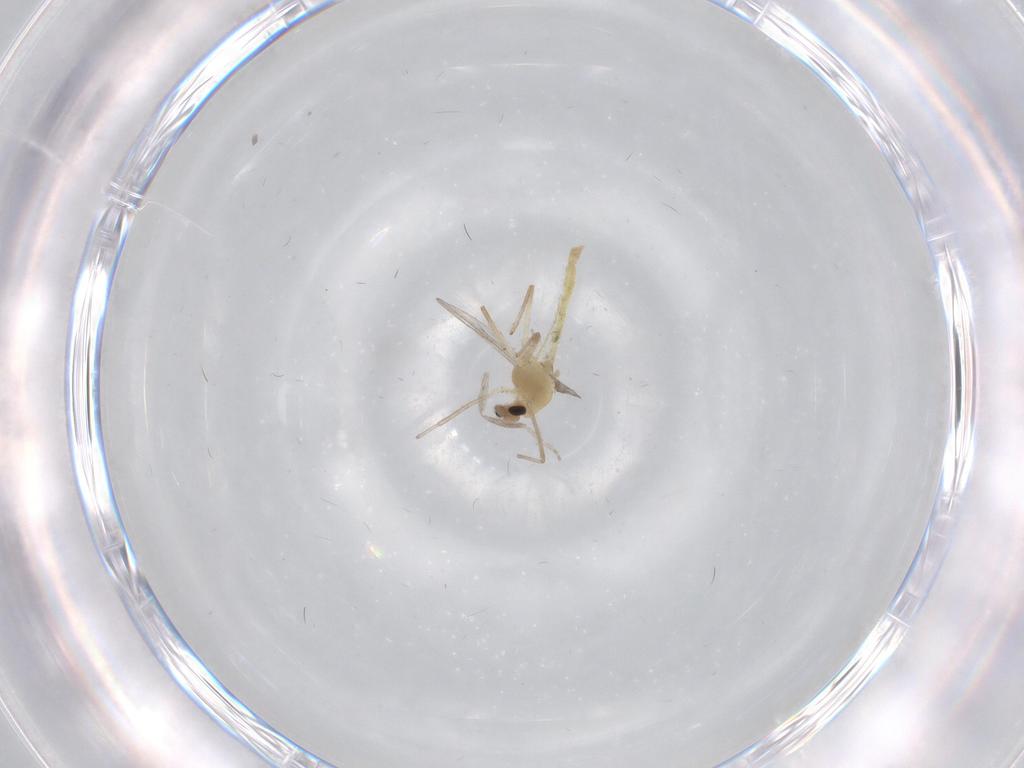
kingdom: Animalia
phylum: Arthropoda
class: Insecta
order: Diptera
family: Chironomidae
